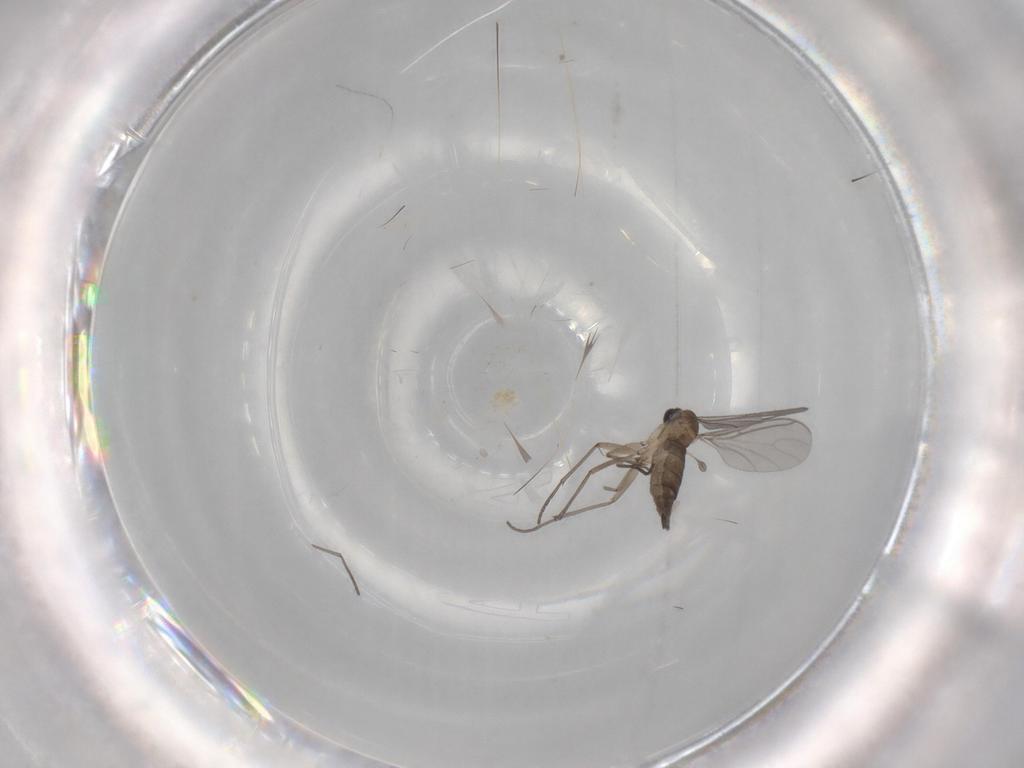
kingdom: Animalia
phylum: Arthropoda
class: Insecta
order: Diptera
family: Sciaridae
